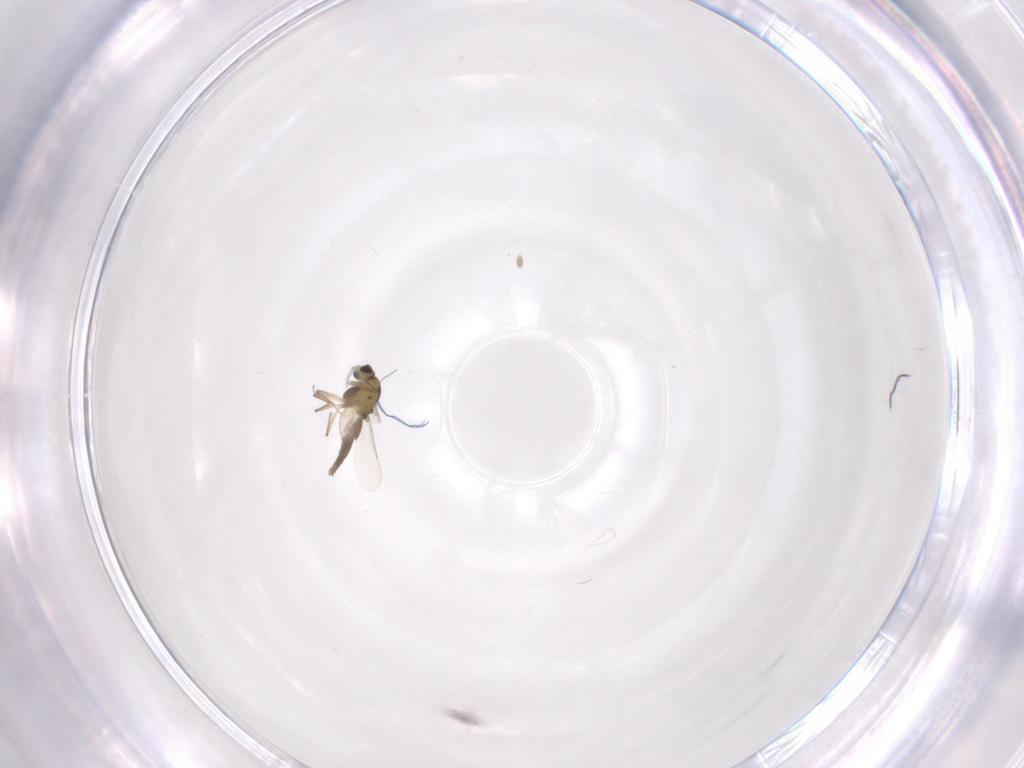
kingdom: Animalia
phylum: Arthropoda
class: Insecta
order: Diptera
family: Chironomidae
